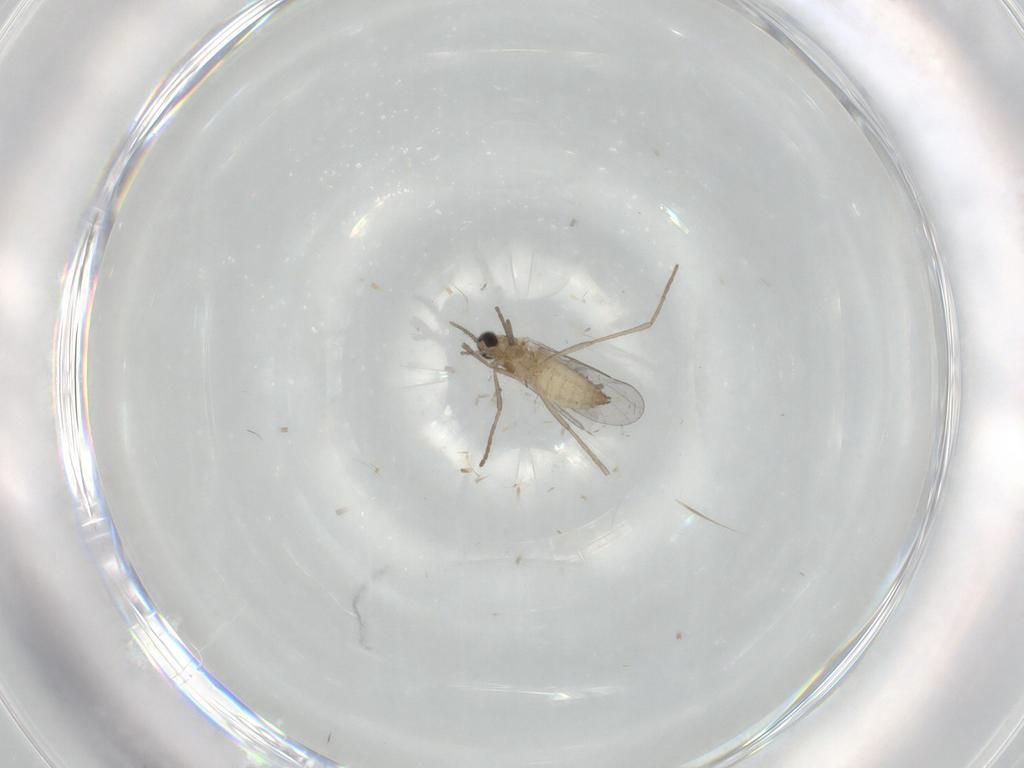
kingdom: Animalia
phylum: Arthropoda
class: Insecta
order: Diptera
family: Cecidomyiidae
